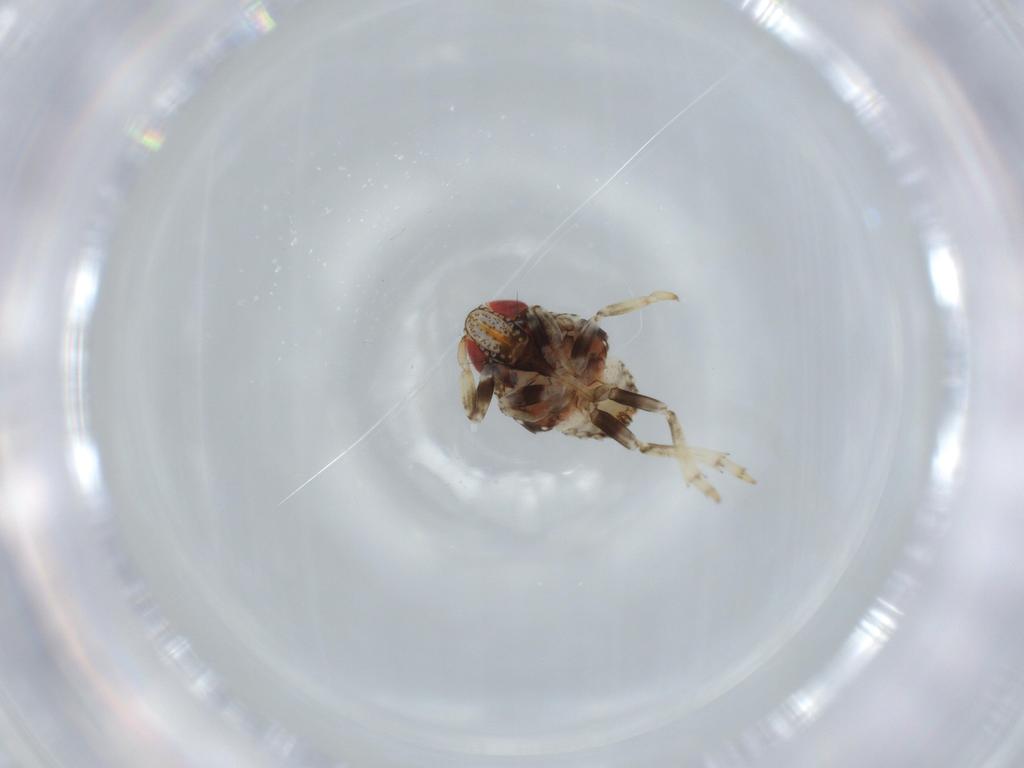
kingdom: Animalia
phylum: Arthropoda
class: Insecta
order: Hemiptera
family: Issidae
